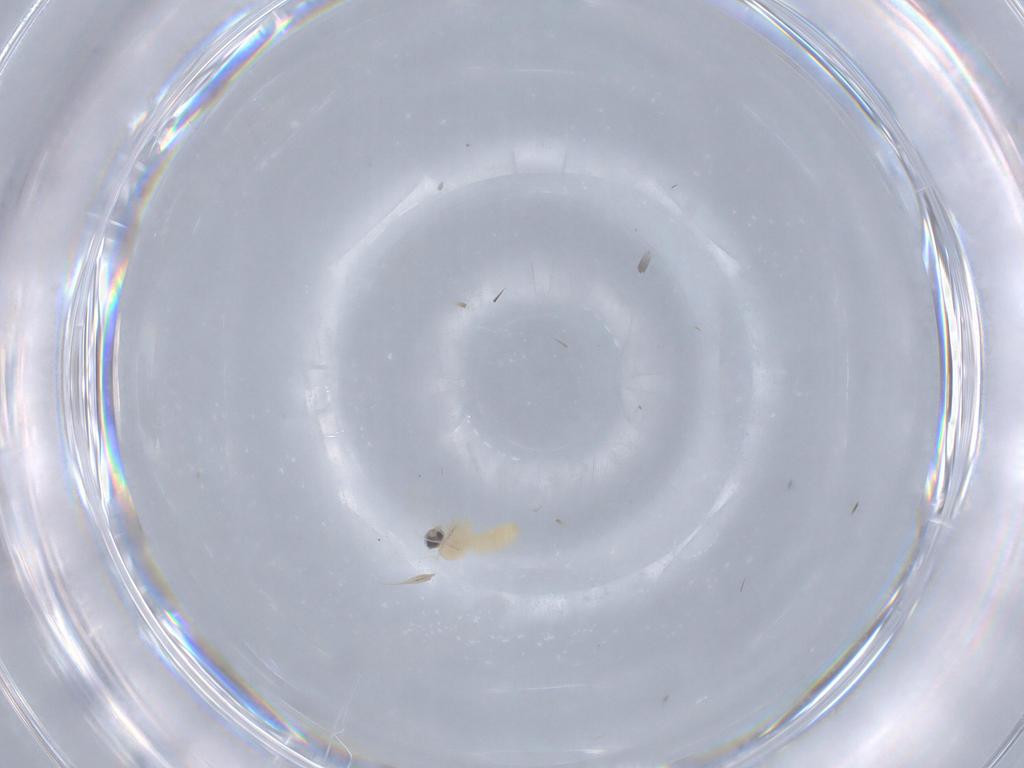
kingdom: Animalia
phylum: Arthropoda
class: Insecta
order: Diptera
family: Cecidomyiidae
